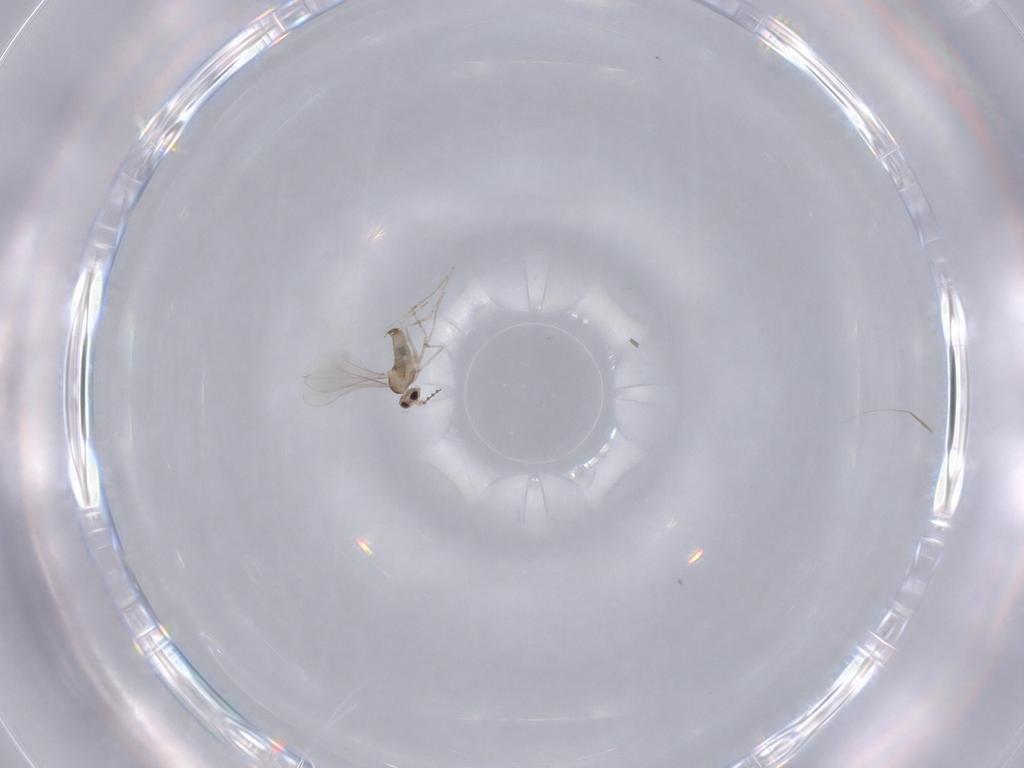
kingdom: Animalia
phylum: Arthropoda
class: Insecta
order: Diptera
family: Cecidomyiidae
